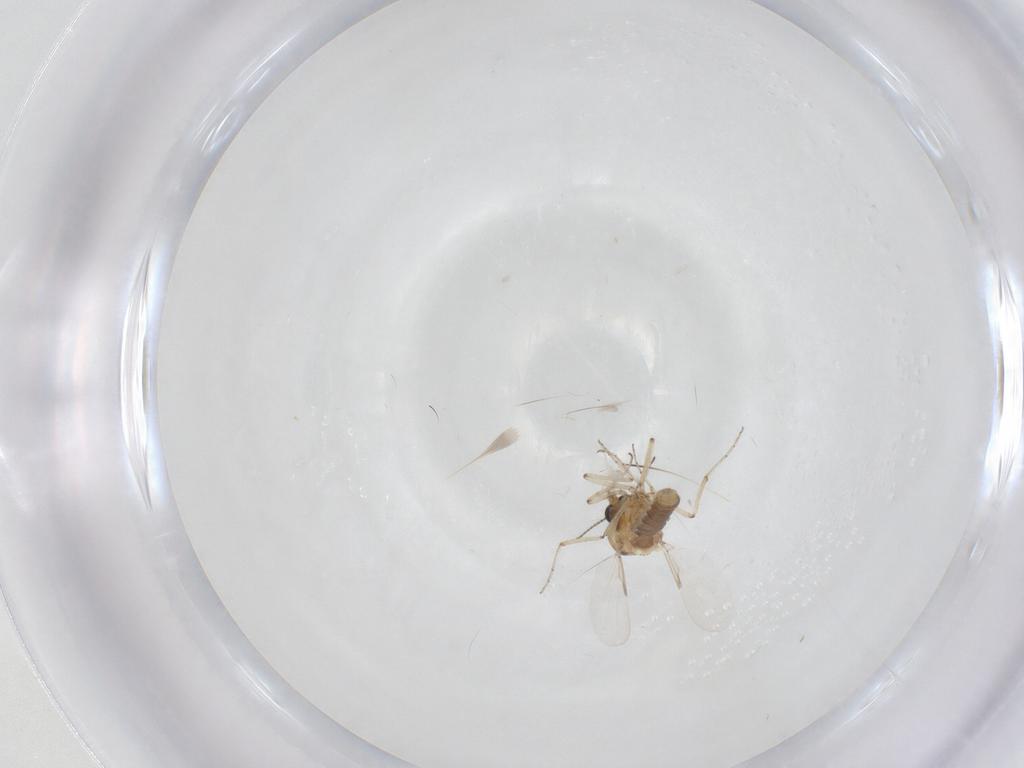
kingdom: Animalia
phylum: Arthropoda
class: Insecta
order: Diptera
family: Ceratopogonidae
